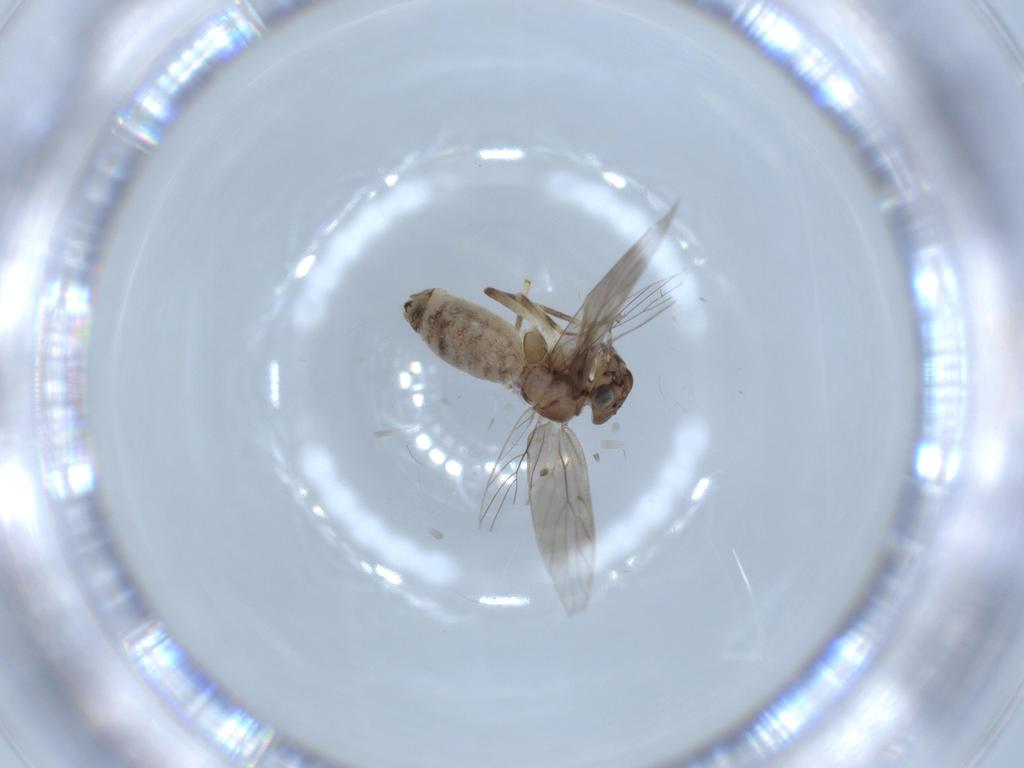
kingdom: Animalia
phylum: Arthropoda
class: Insecta
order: Psocodea
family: Lepidopsocidae
